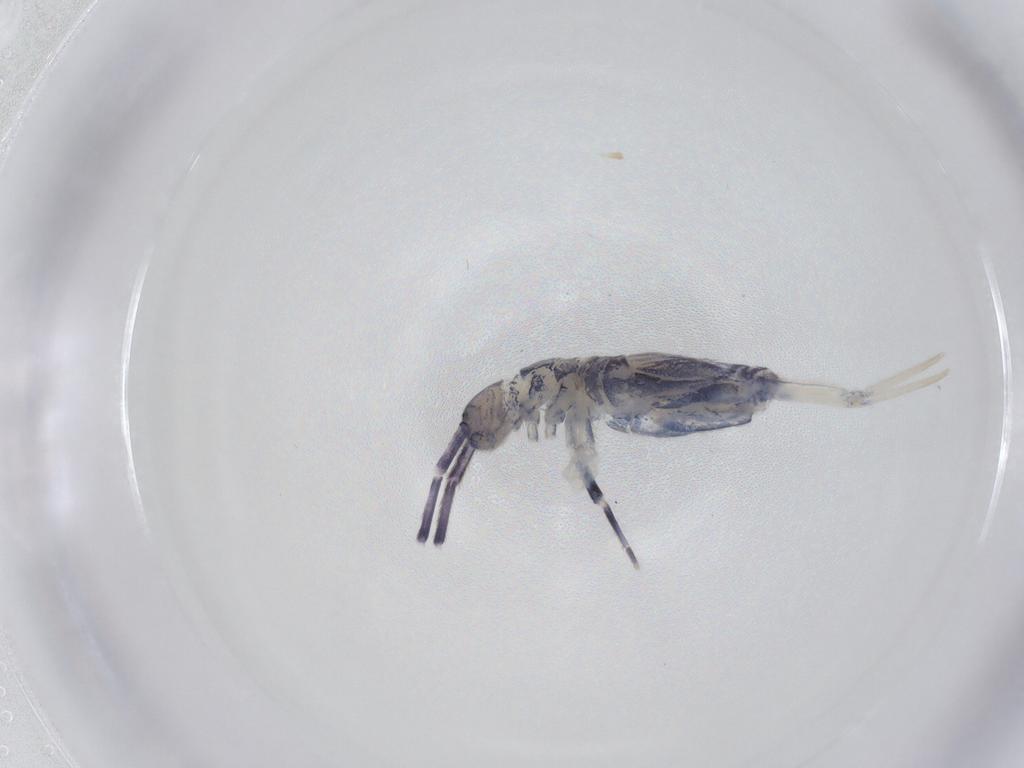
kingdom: Animalia
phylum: Arthropoda
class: Collembola
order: Entomobryomorpha
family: Entomobryidae
